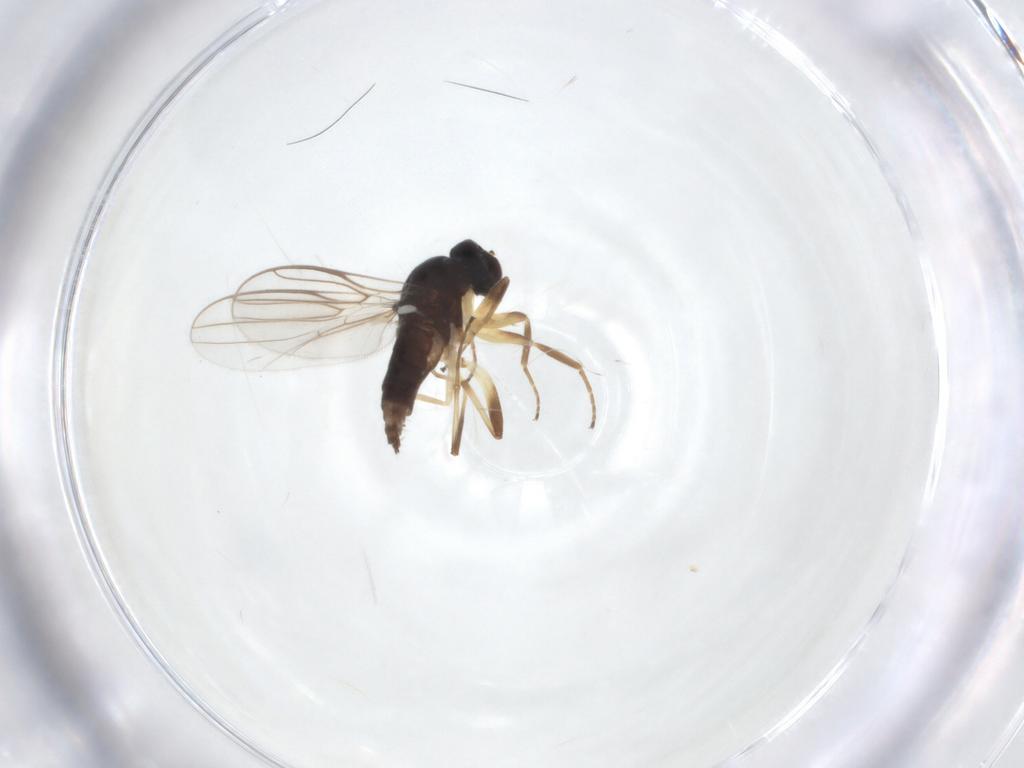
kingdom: Animalia
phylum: Arthropoda
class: Insecta
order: Diptera
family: Hybotidae
